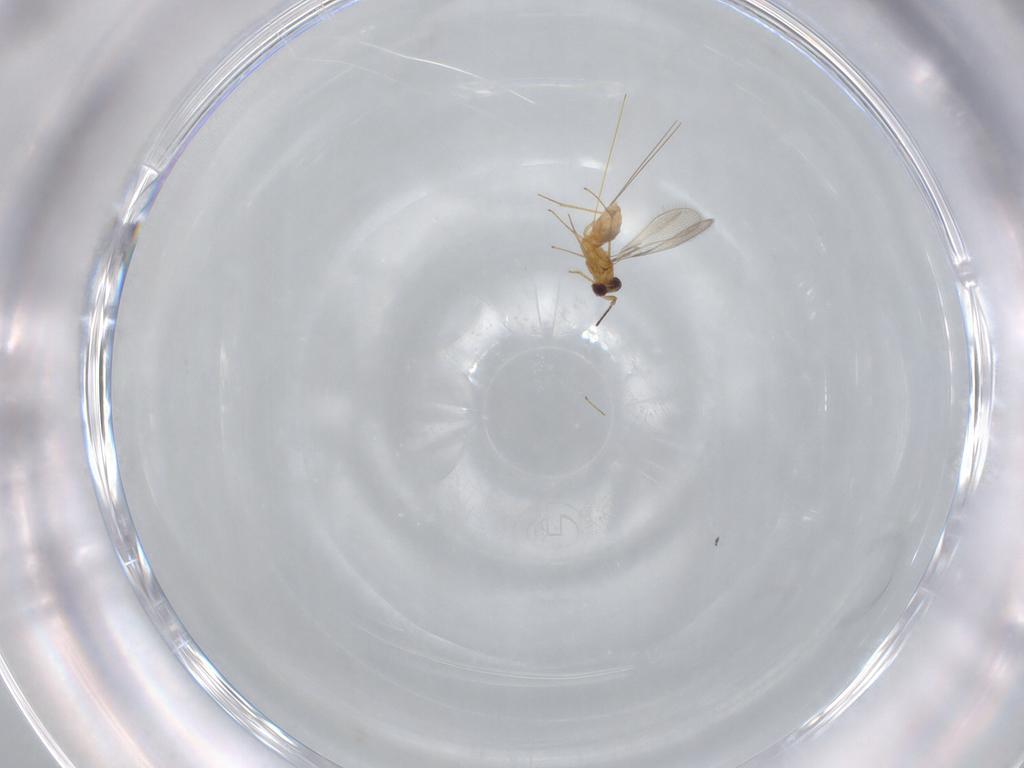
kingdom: Animalia
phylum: Arthropoda
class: Insecta
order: Hymenoptera
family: Mymaridae
